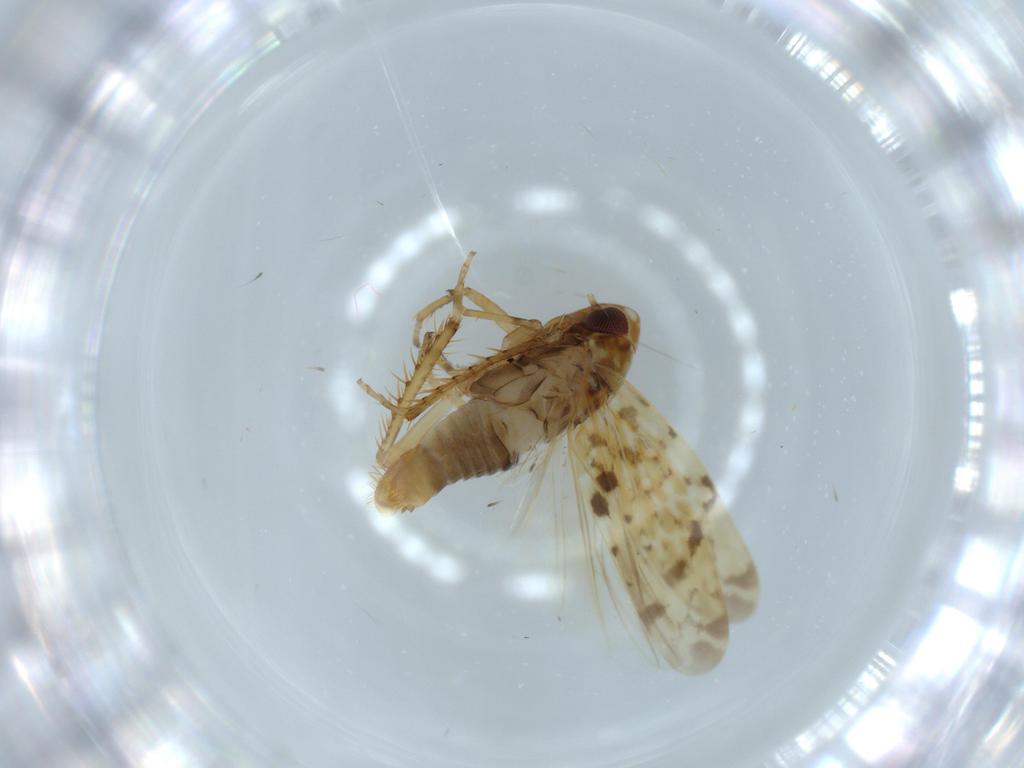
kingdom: Animalia
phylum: Arthropoda
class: Insecta
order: Hemiptera
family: Cicadellidae
